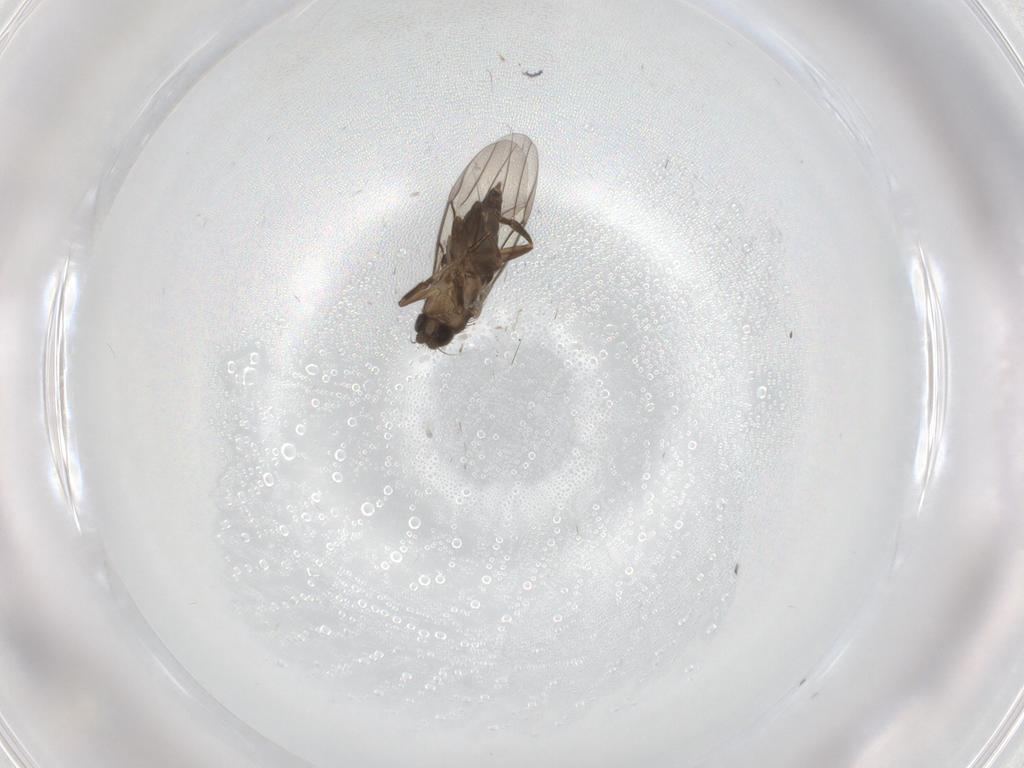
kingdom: Animalia
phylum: Arthropoda
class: Insecta
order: Diptera
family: Phoridae
